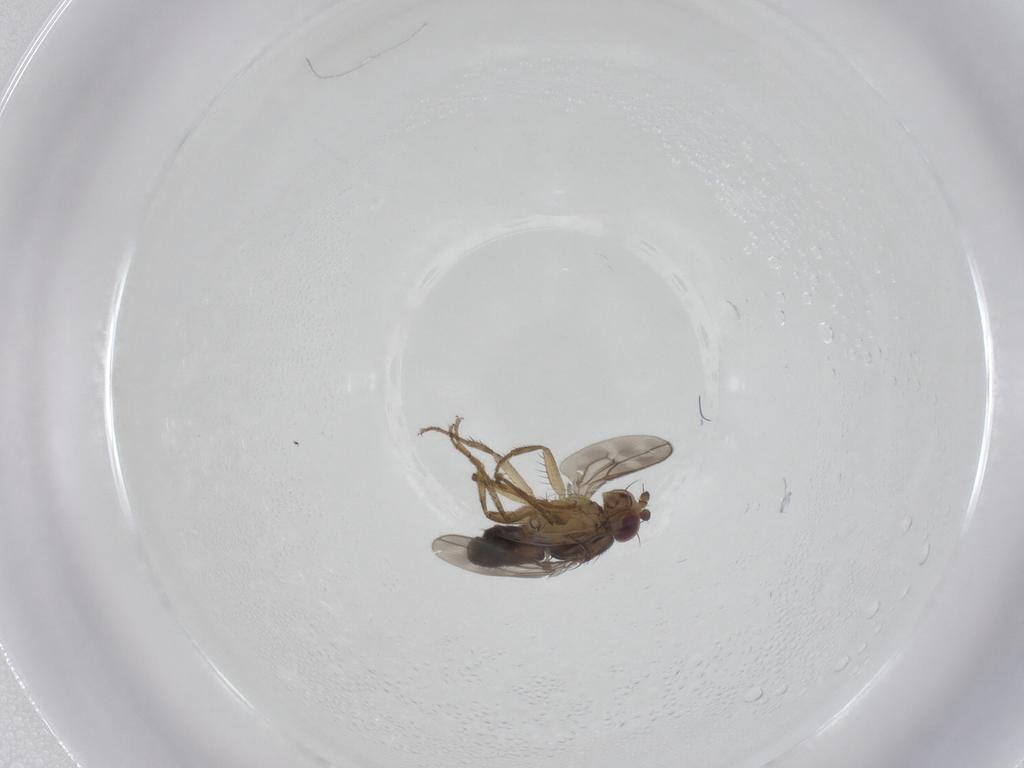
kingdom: Animalia
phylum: Arthropoda
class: Insecta
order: Diptera
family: Sphaeroceridae
